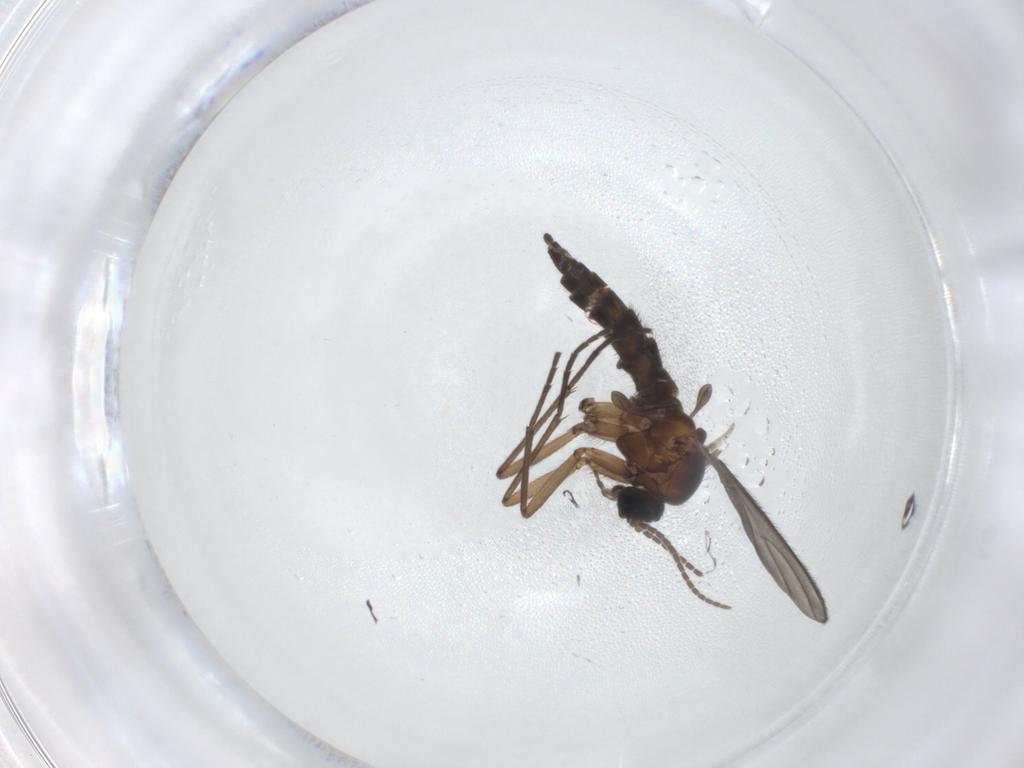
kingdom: Animalia
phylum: Arthropoda
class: Insecta
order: Diptera
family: Sciaridae
